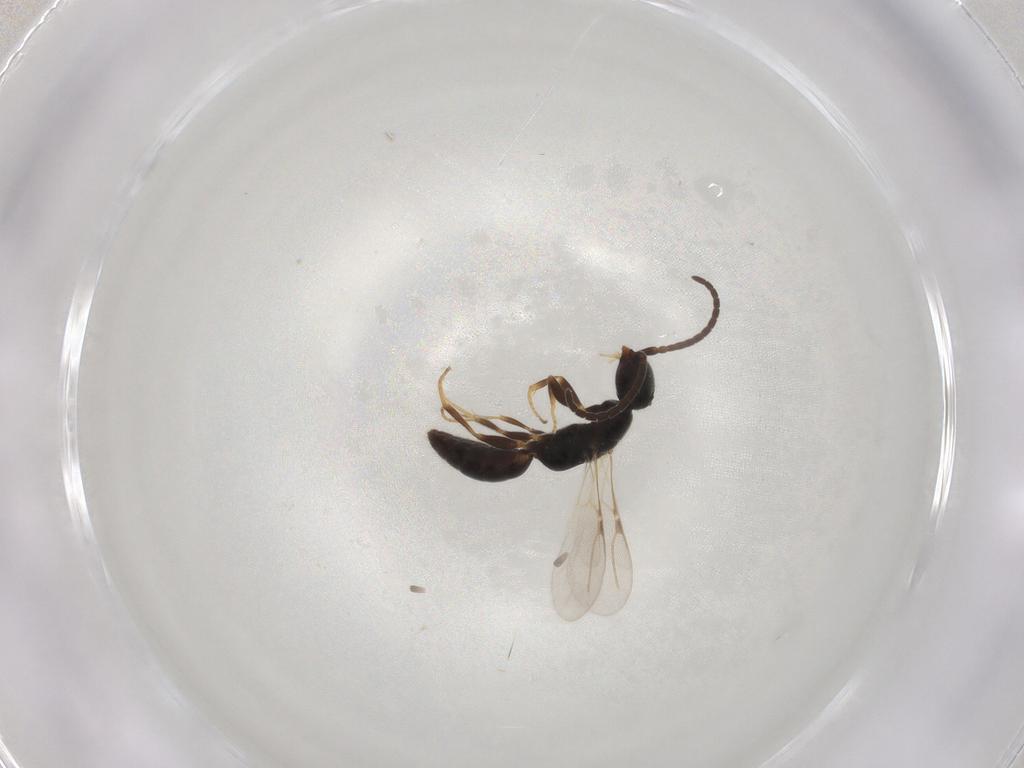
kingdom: Animalia
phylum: Arthropoda
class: Insecta
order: Hymenoptera
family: Bethylidae
